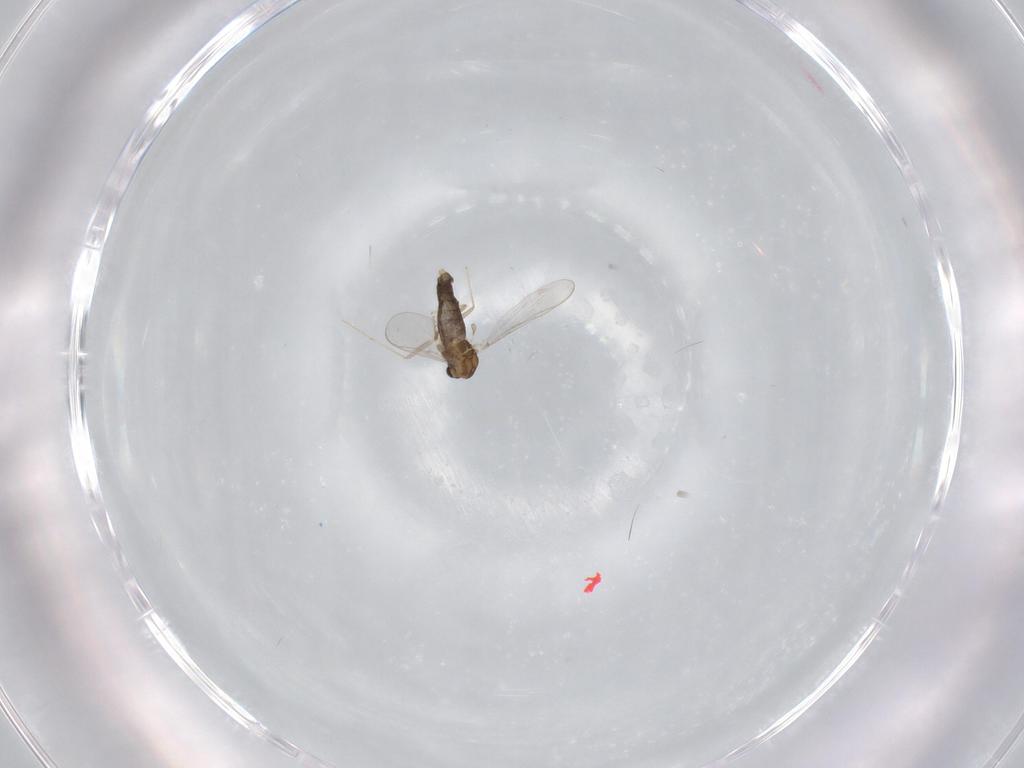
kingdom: Animalia
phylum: Arthropoda
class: Insecta
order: Diptera
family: Chironomidae
